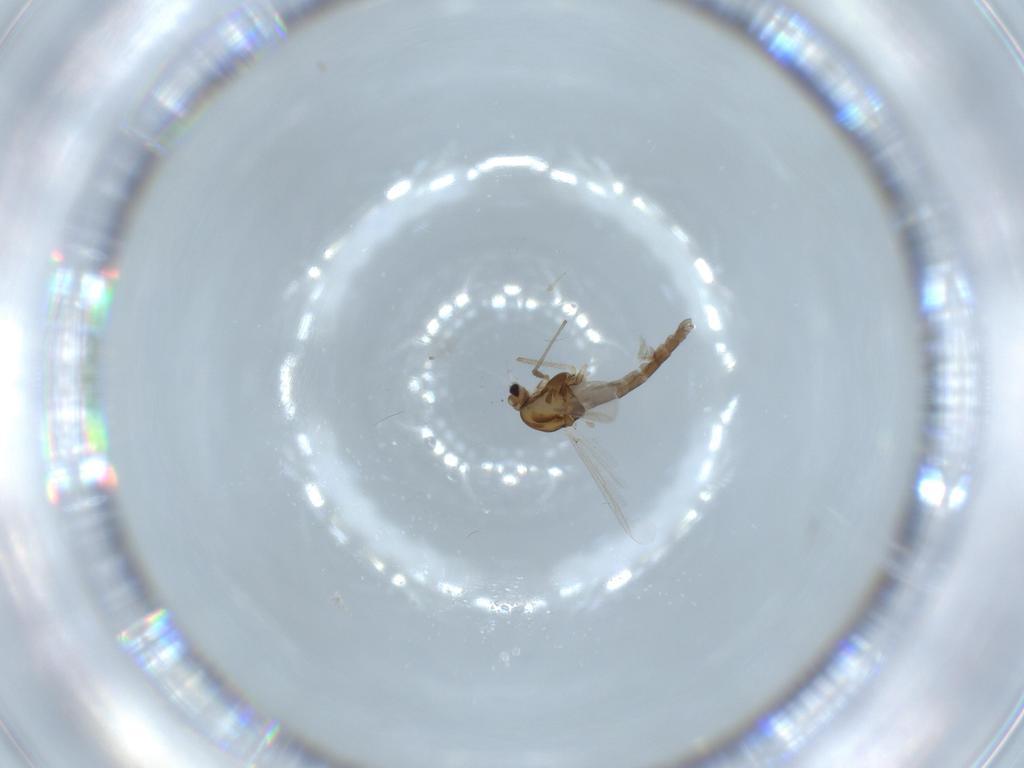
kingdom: Animalia
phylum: Arthropoda
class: Insecta
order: Diptera
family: Chironomidae
